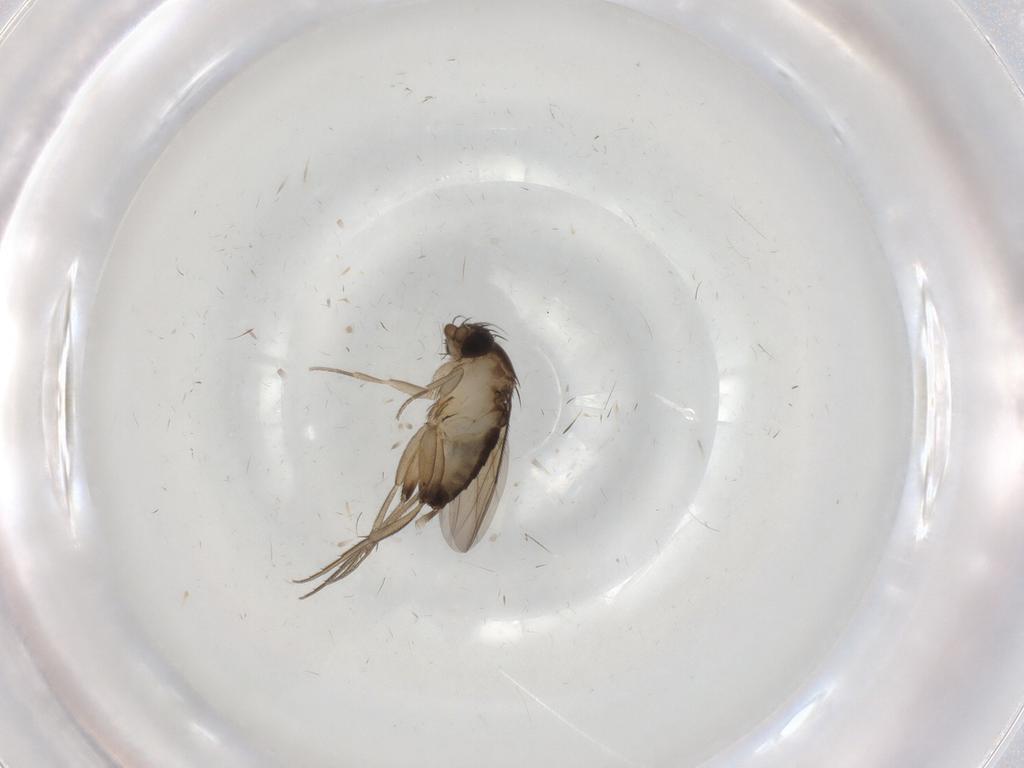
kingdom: Animalia
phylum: Arthropoda
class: Insecta
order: Diptera
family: Phoridae
